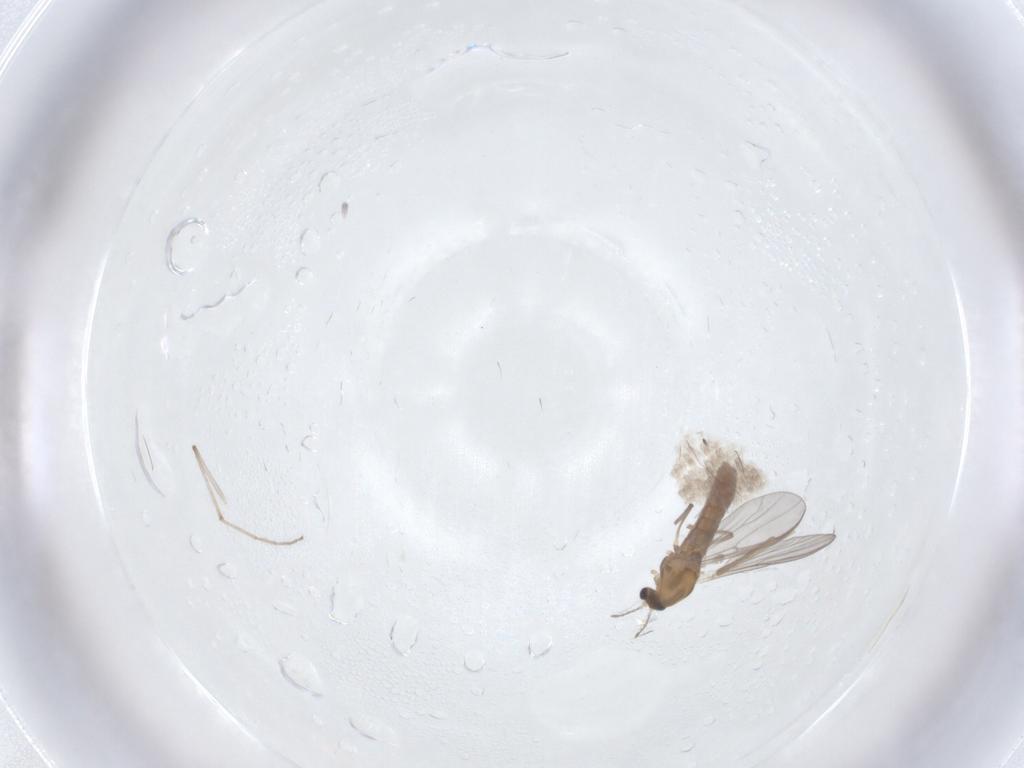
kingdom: Animalia
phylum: Arthropoda
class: Insecta
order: Diptera
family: Chironomidae
